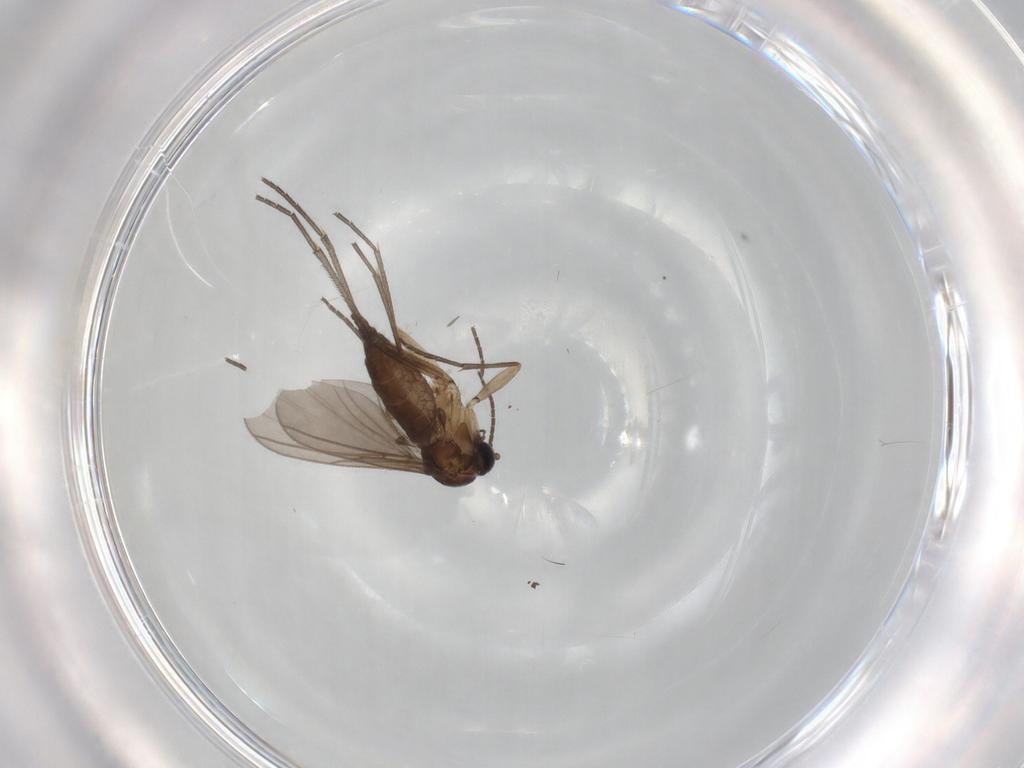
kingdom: Animalia
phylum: Arthropoda
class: Insecta
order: Diptera
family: Sciaridae
